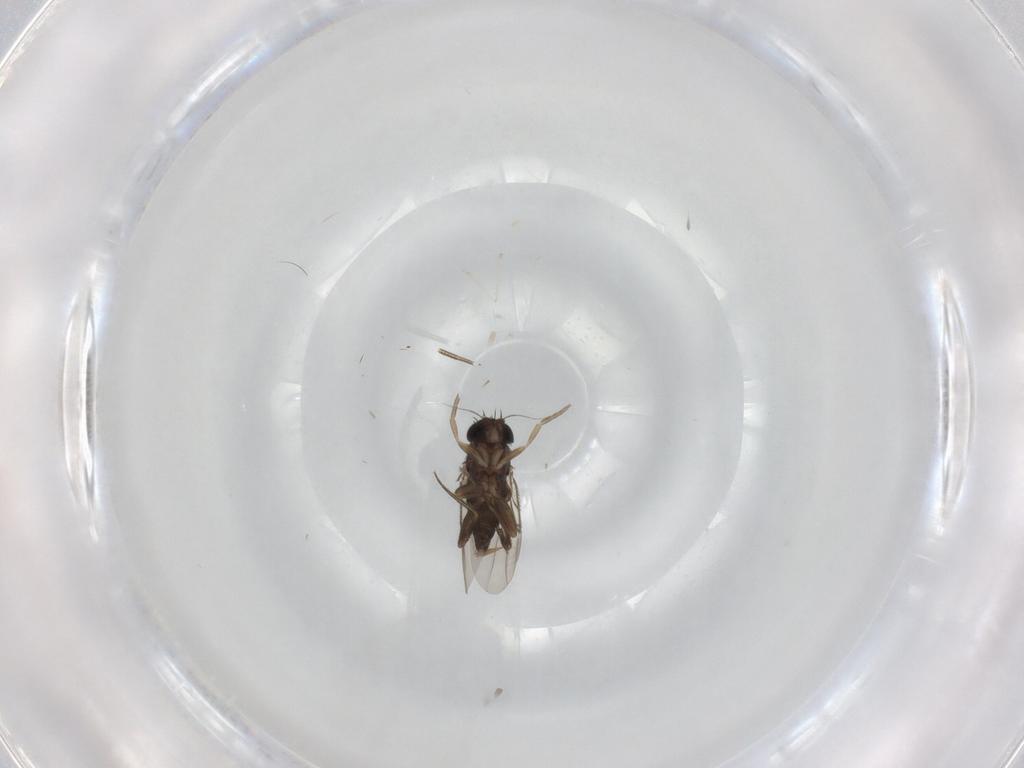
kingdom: Animalia
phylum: Arthropoda
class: Insecta
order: Diptera
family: Phoridae
